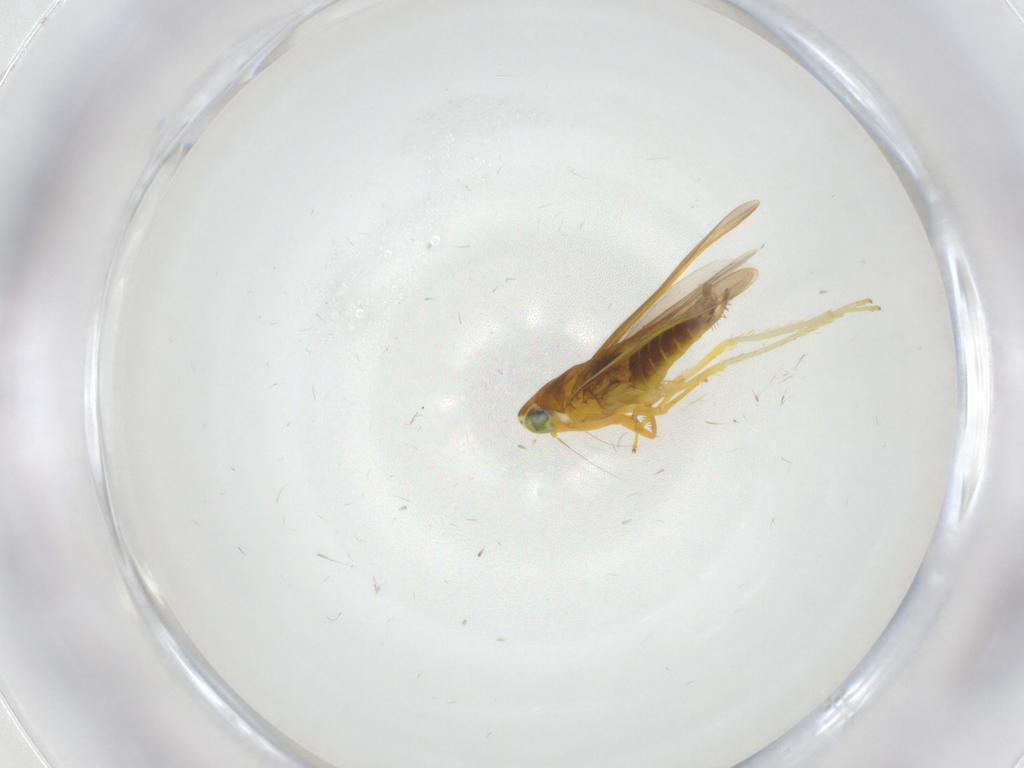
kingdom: Animalia
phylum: Arthropoda
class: Insecta
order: Hemiptera
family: Cicadellidae
